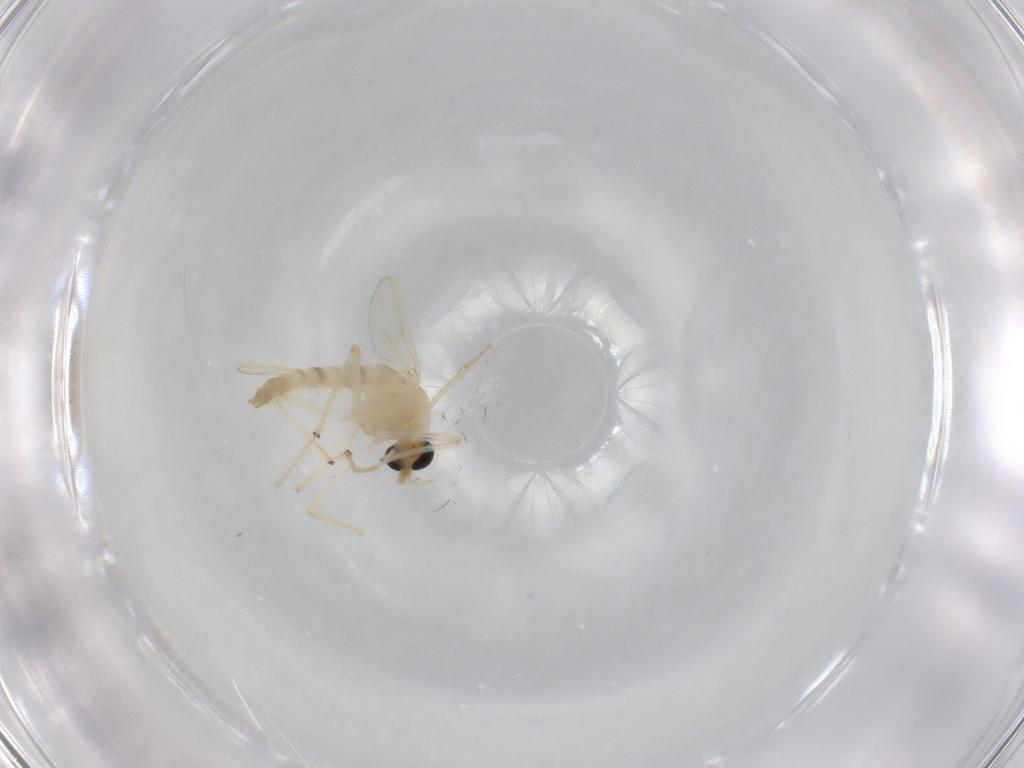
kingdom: Animalia
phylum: Arthropoda
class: Insecta
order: Diptera
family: Chironomidae
